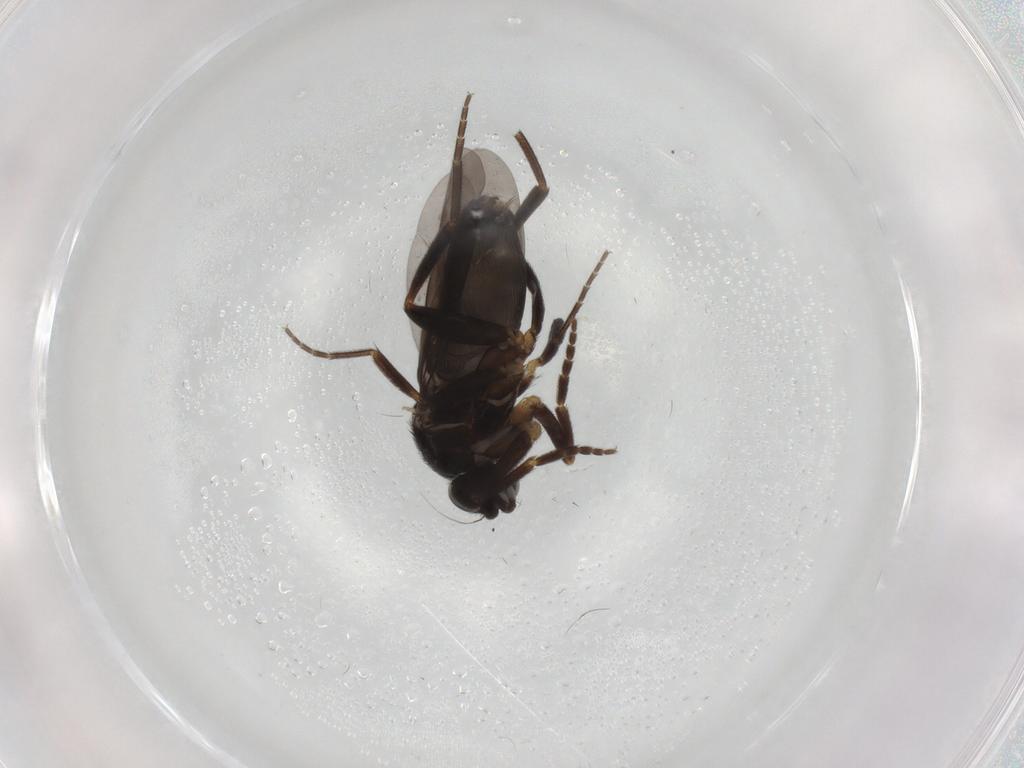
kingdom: Animalia
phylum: Arthropoda
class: Insecta
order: Diptera
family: Phoridae
